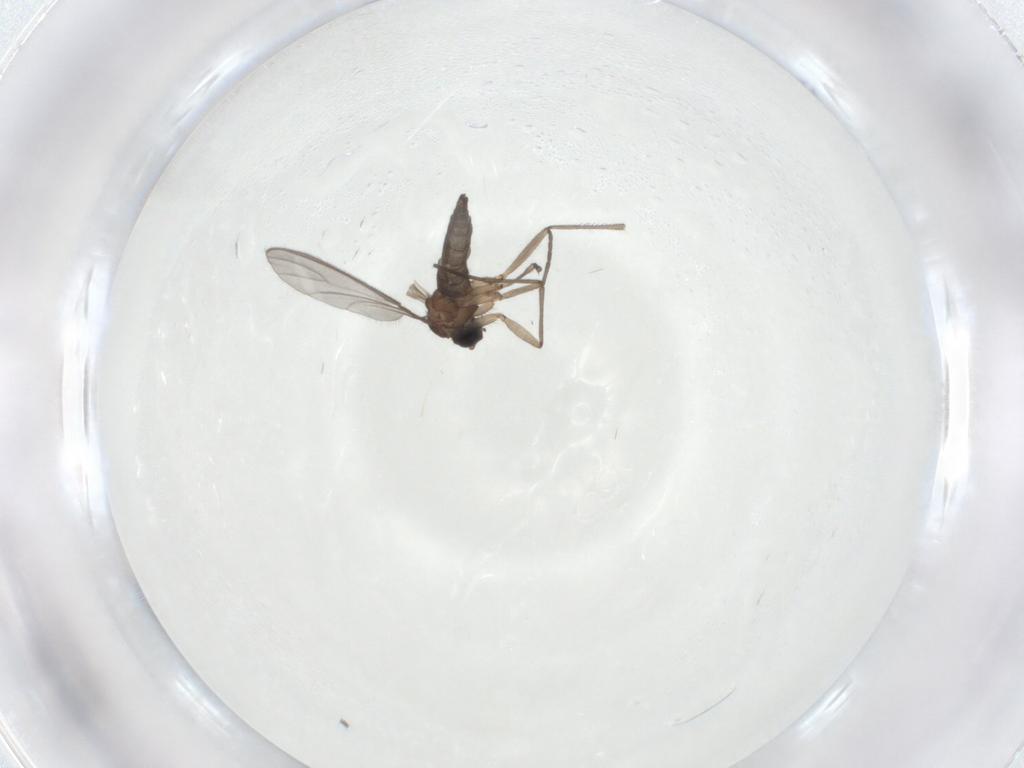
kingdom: Animalia
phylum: Arthropoda
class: Insecta
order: Diptera
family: Sciaridae
